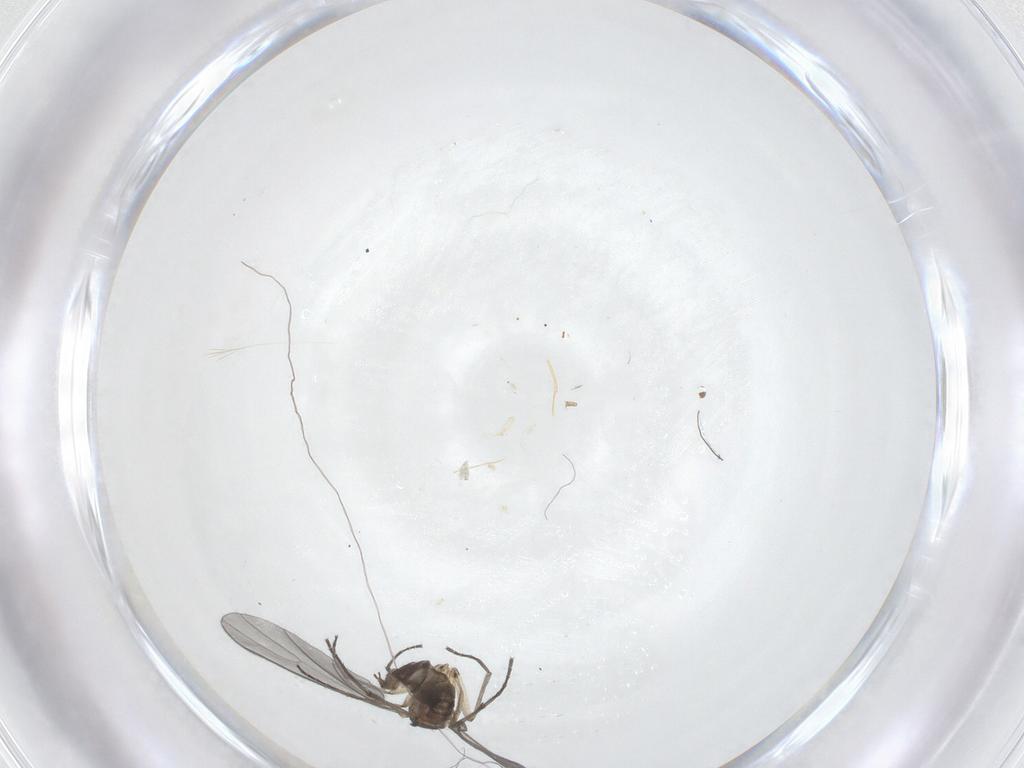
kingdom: Animalia
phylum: Arthropoda
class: Insecta
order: Diptera
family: Sciaridae
